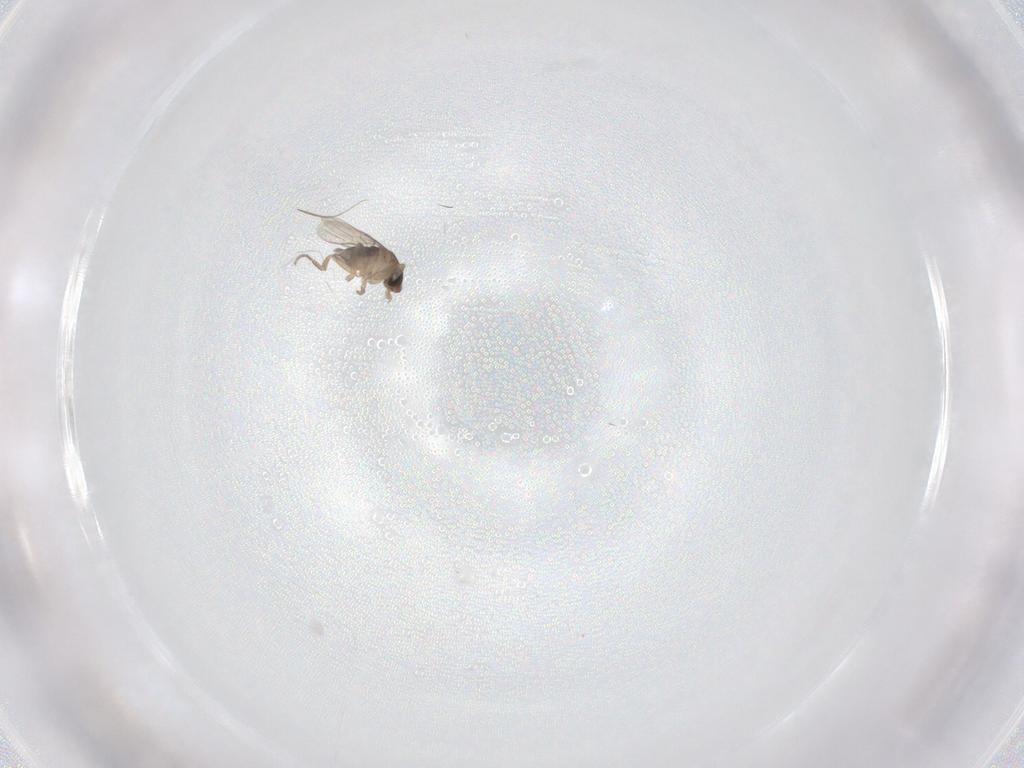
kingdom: Animalia
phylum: Arthropoda
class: Insecta
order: Diptera
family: Phoridae
